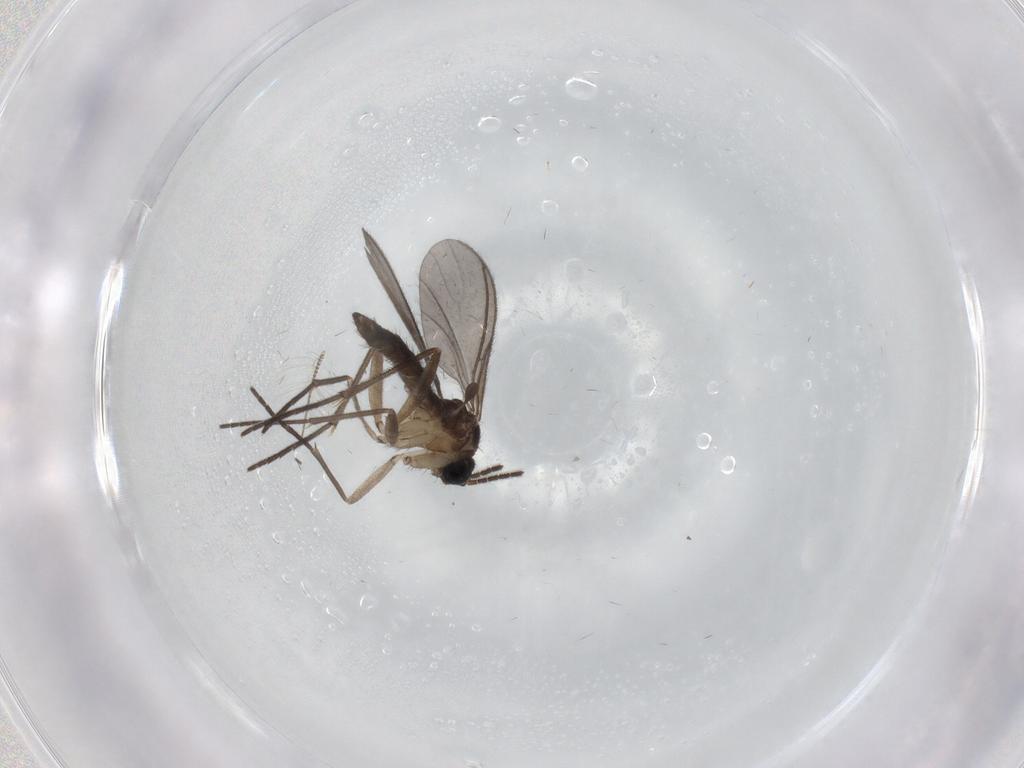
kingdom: Animalia
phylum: Arthropoda
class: Insecta
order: Diptera
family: Sciaridae
